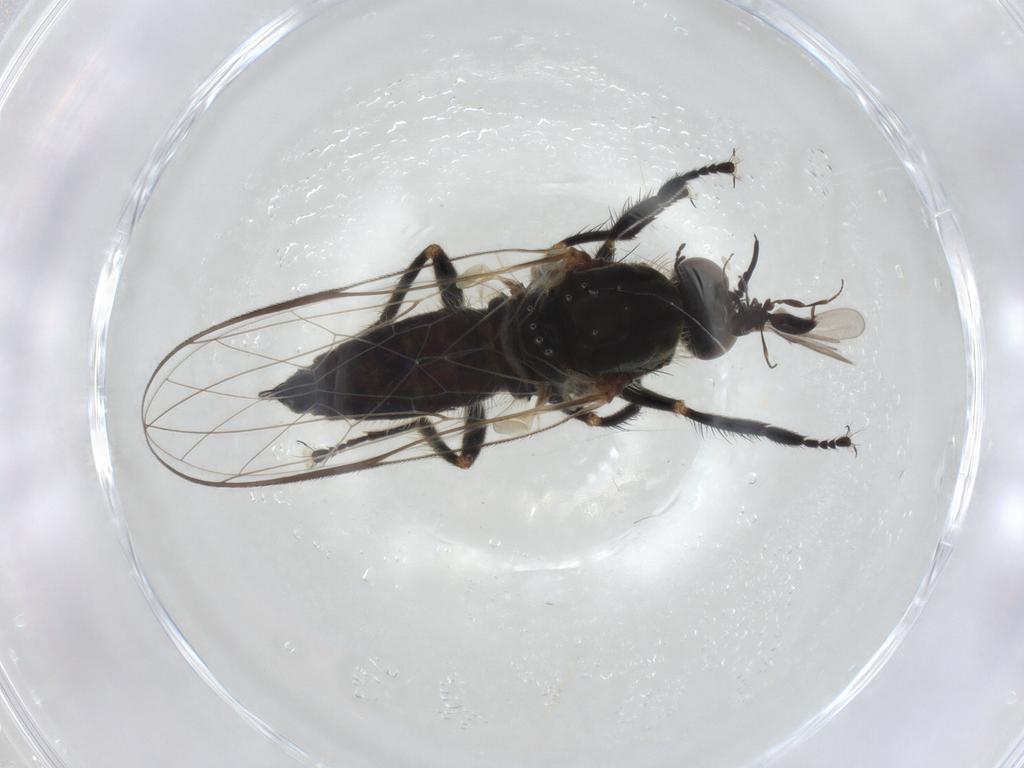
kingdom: Animalia
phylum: Arthropoda
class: Insecta
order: Diptera
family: Empididae
